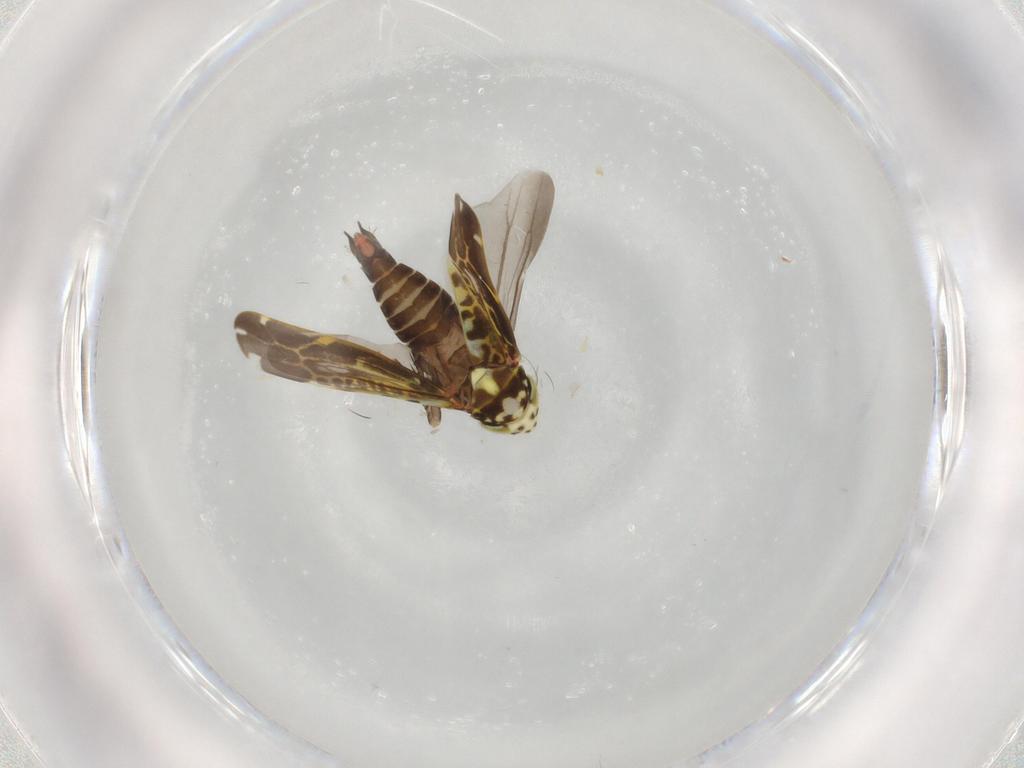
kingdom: Animalia
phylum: Arthropoda
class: Insecta
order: Hemiptera
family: Cicadellidae
